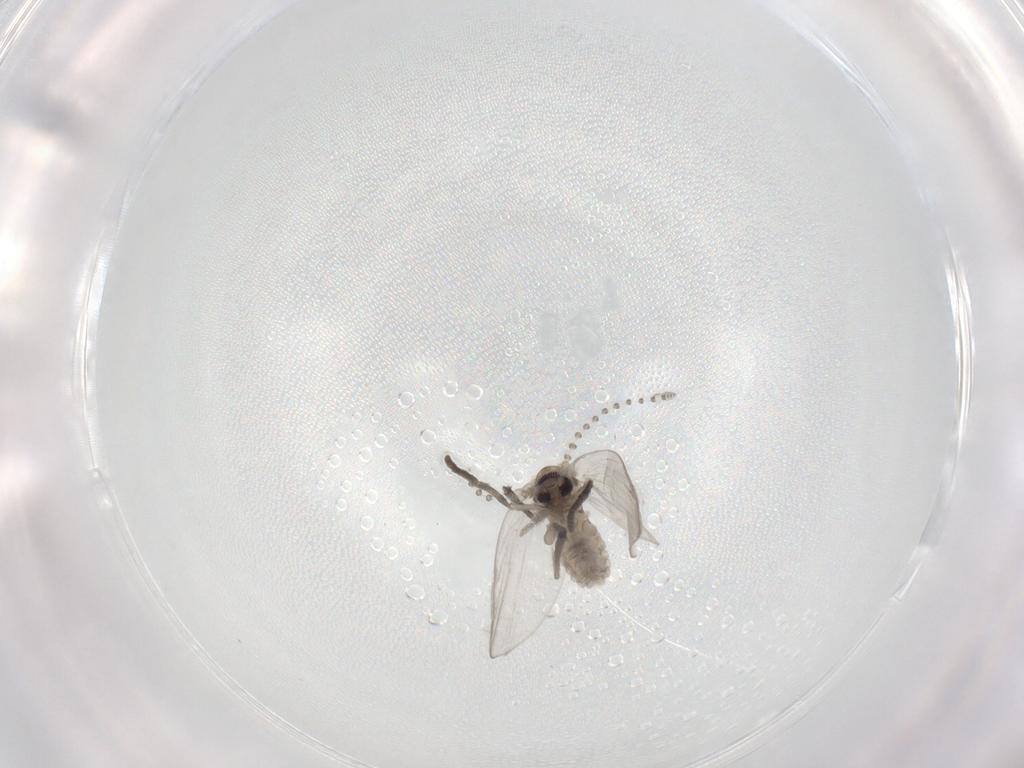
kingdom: Animalia
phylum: Arthropoda
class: Insecta
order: Diptera
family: Psychodidae
